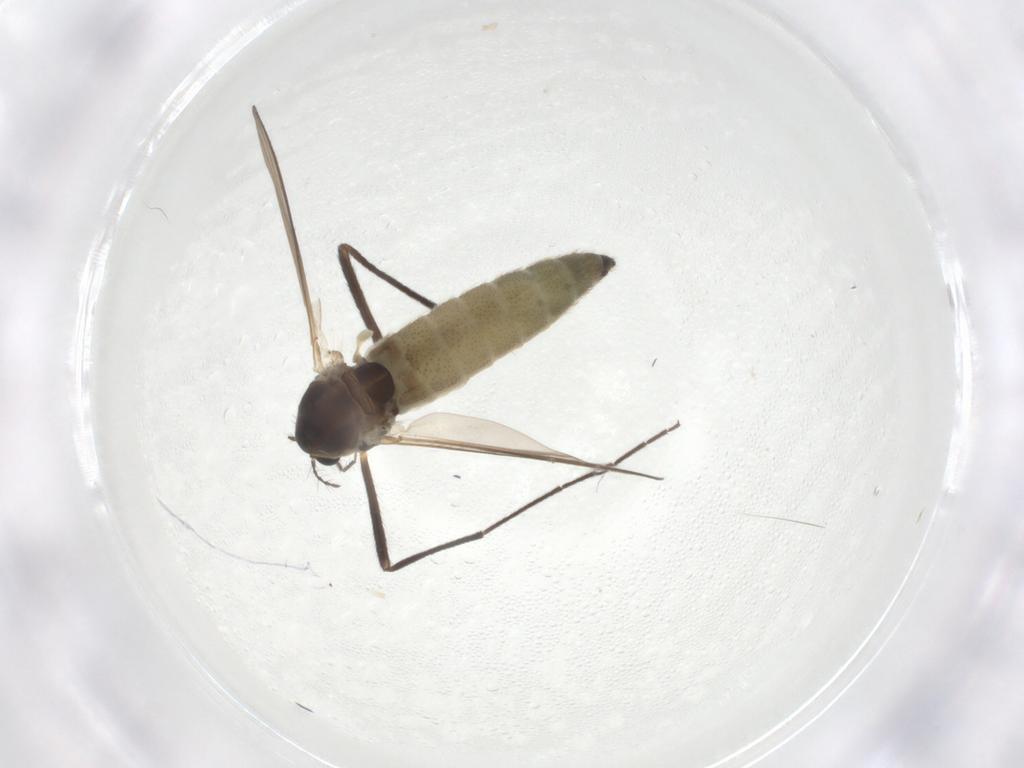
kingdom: Animalia
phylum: Arthropoda
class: Insecta
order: Diptera
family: Chironomidae
